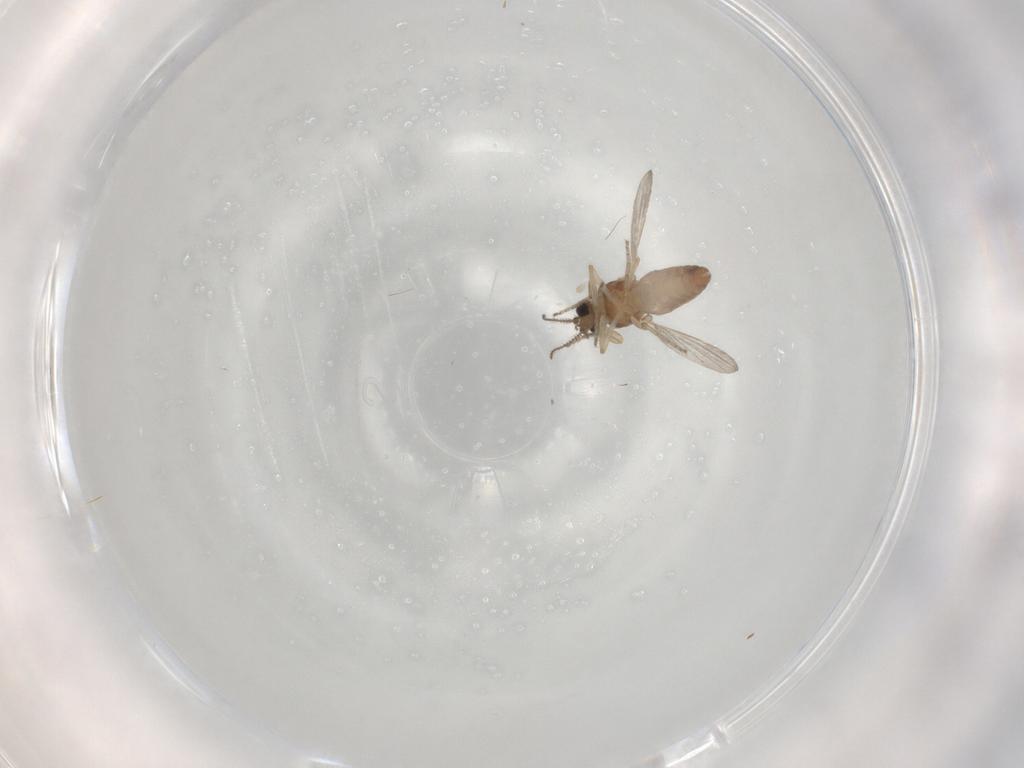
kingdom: Animalia
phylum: Arthropoda
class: Insecta
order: Diptera
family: Ceratopogonidae
